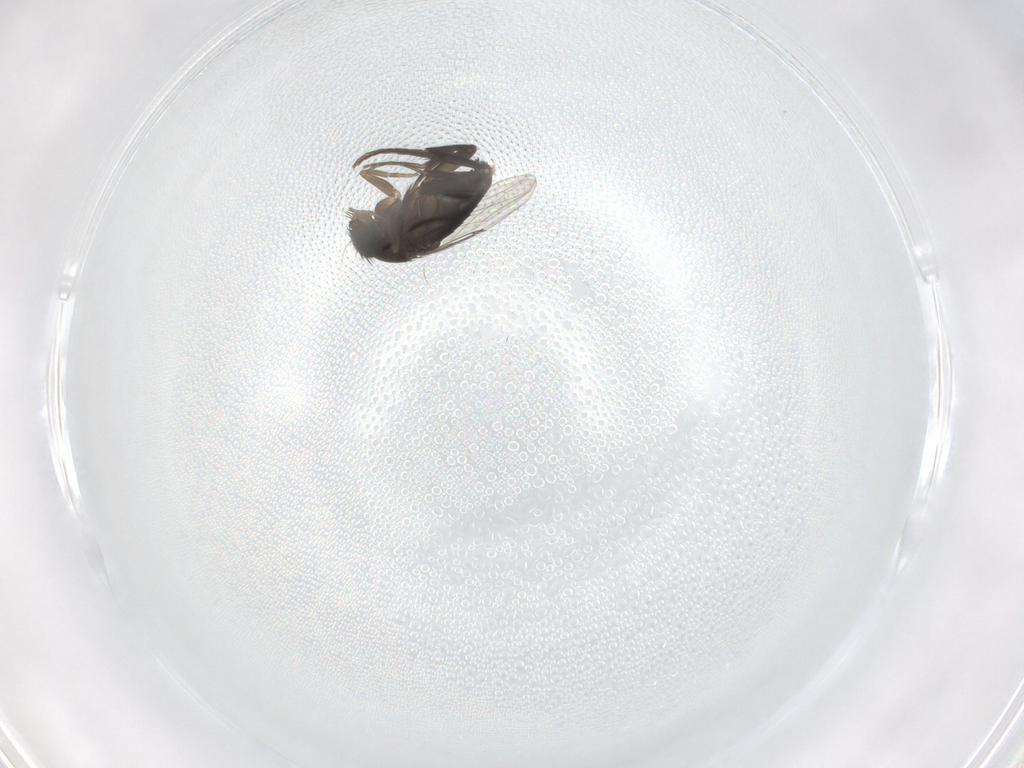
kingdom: Animalia
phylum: Arthropoda
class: Insecta
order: Diptera
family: Phoridae
